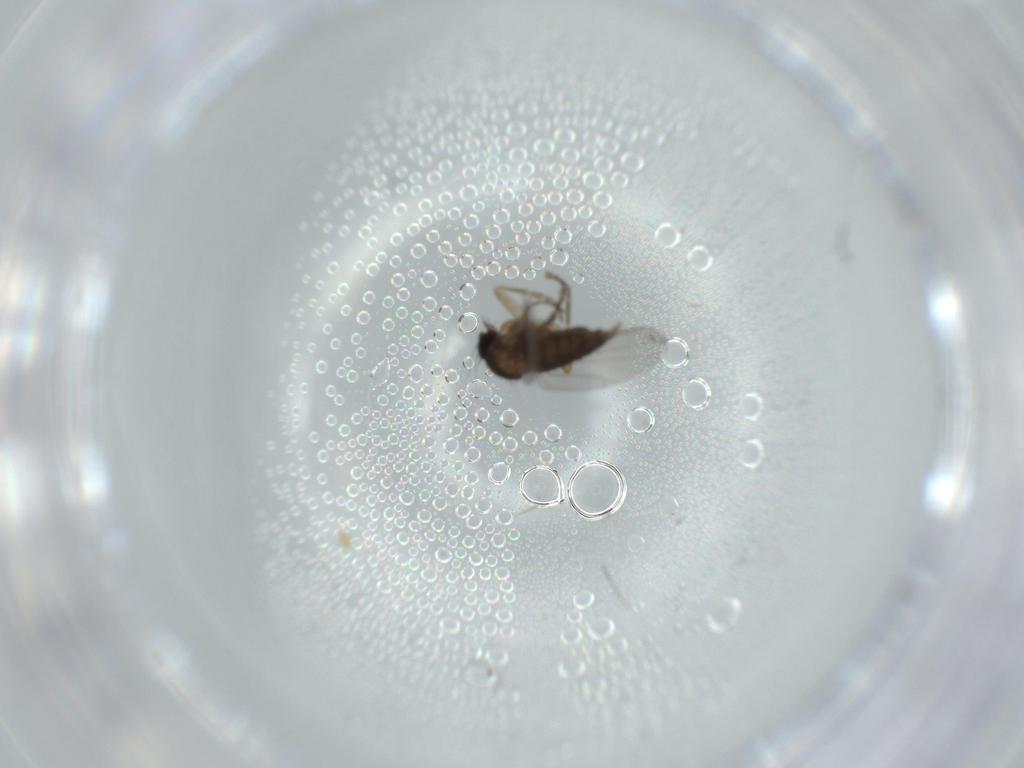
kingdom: Animalia
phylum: Arthropoda
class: Insecta
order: Diptera
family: Phoridae
